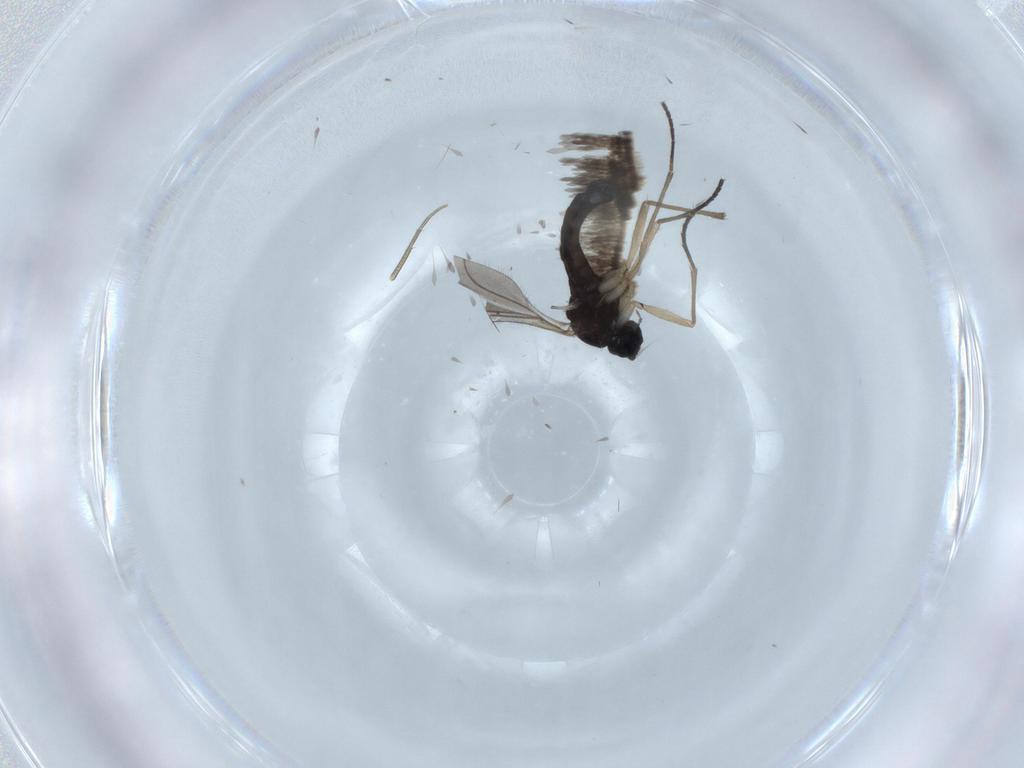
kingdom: Animalia
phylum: Arthropoda
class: Insecta
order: Diptera
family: Sciaridae
